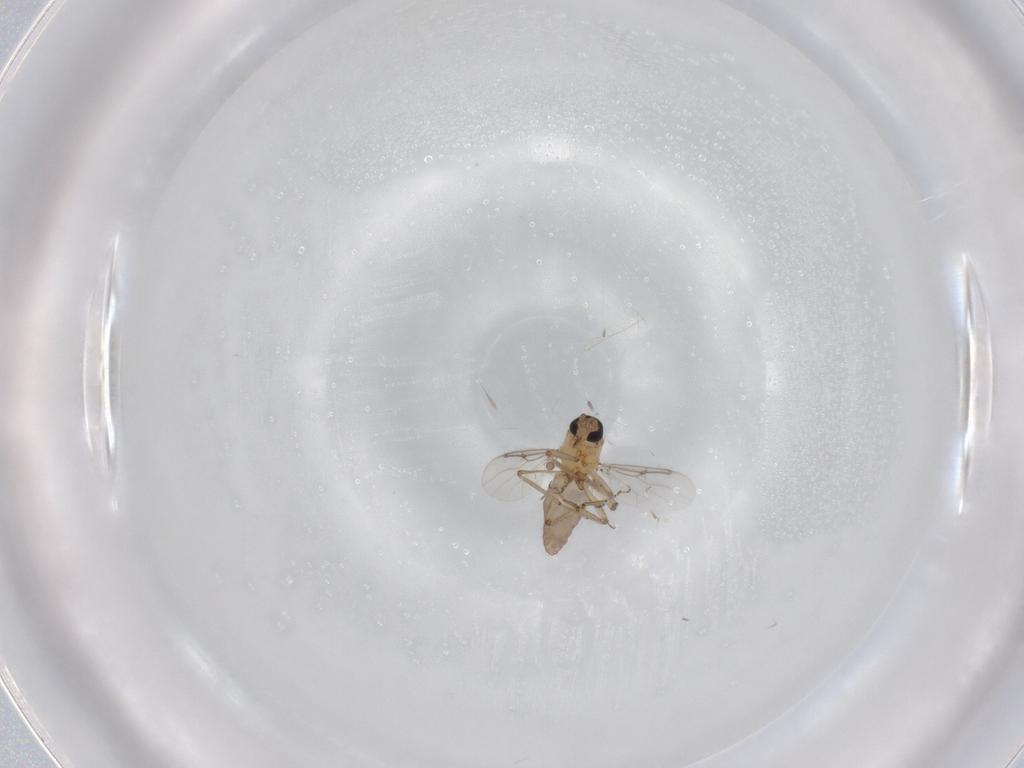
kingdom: Animalia
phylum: Arthropoda
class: Insecta
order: Diptera
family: Ceratopogonidae
